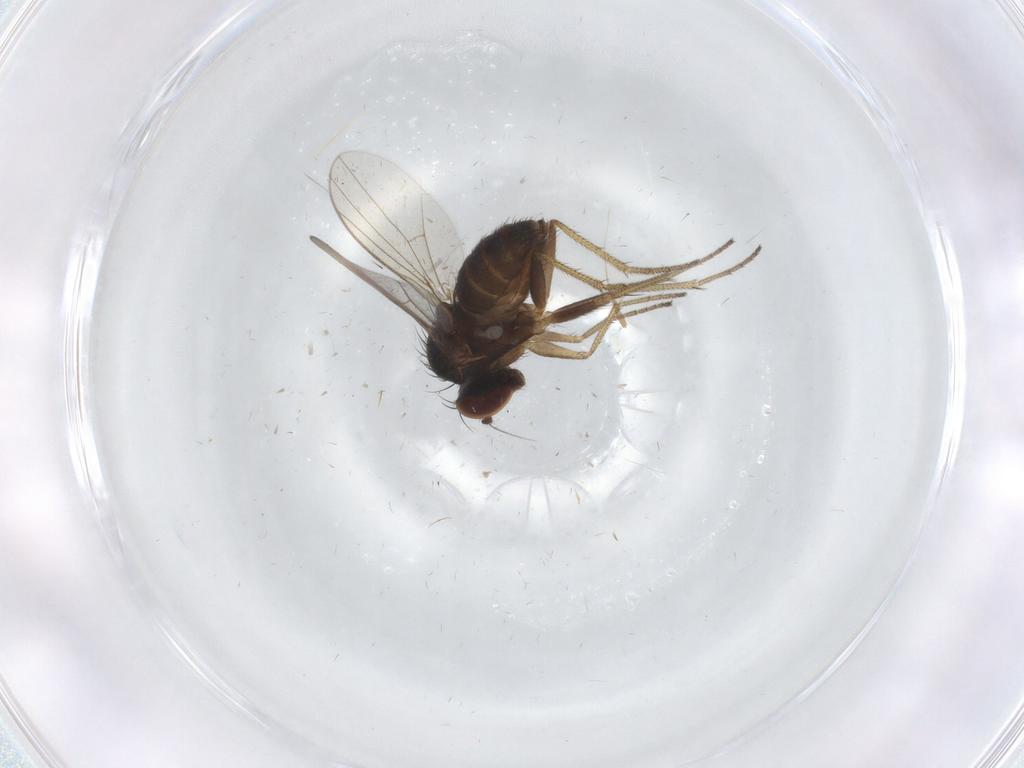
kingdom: Animalia
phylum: Arthropoda
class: Insecta
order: Diptera
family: Dolichopodidae
